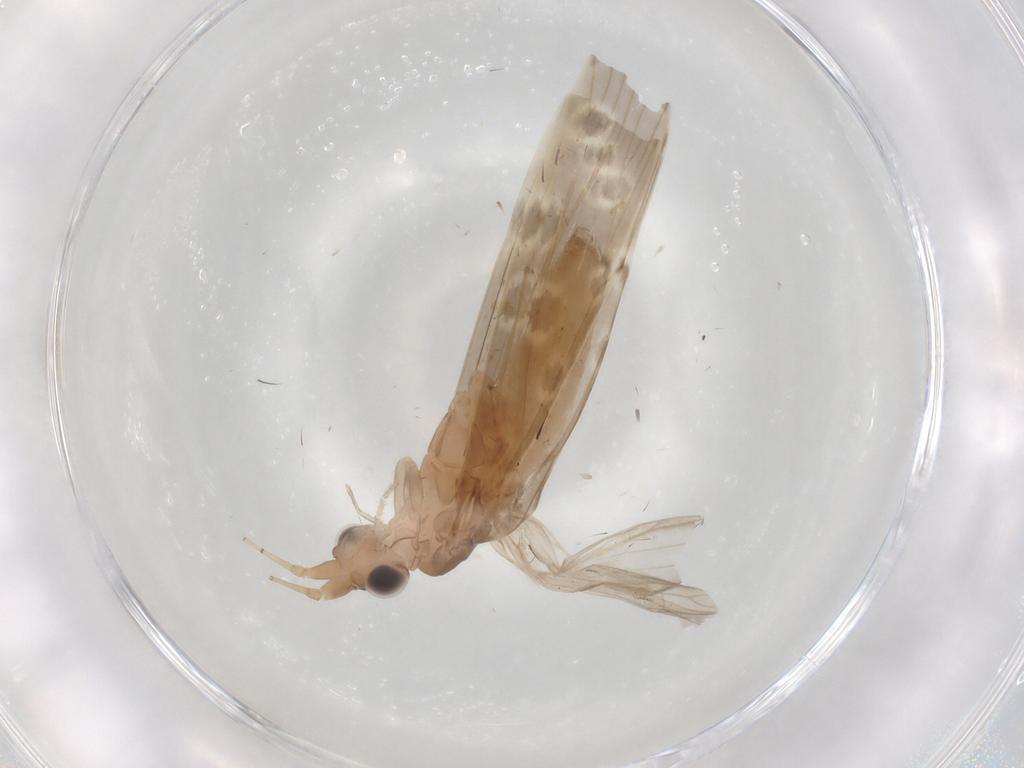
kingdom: Animalia
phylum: Arthropoda
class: Insecta
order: Trichoptera
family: Leptoceridae
